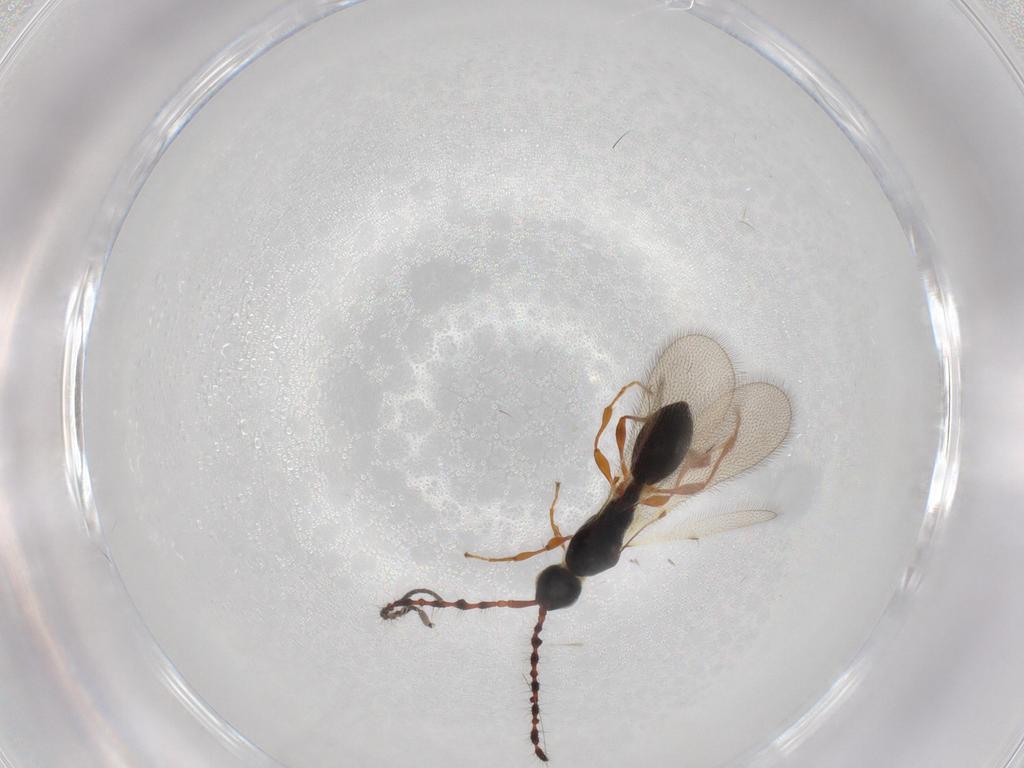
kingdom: Animalia
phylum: Arthropoda
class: Insecta
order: Hymenoptera
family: Diapriidae
